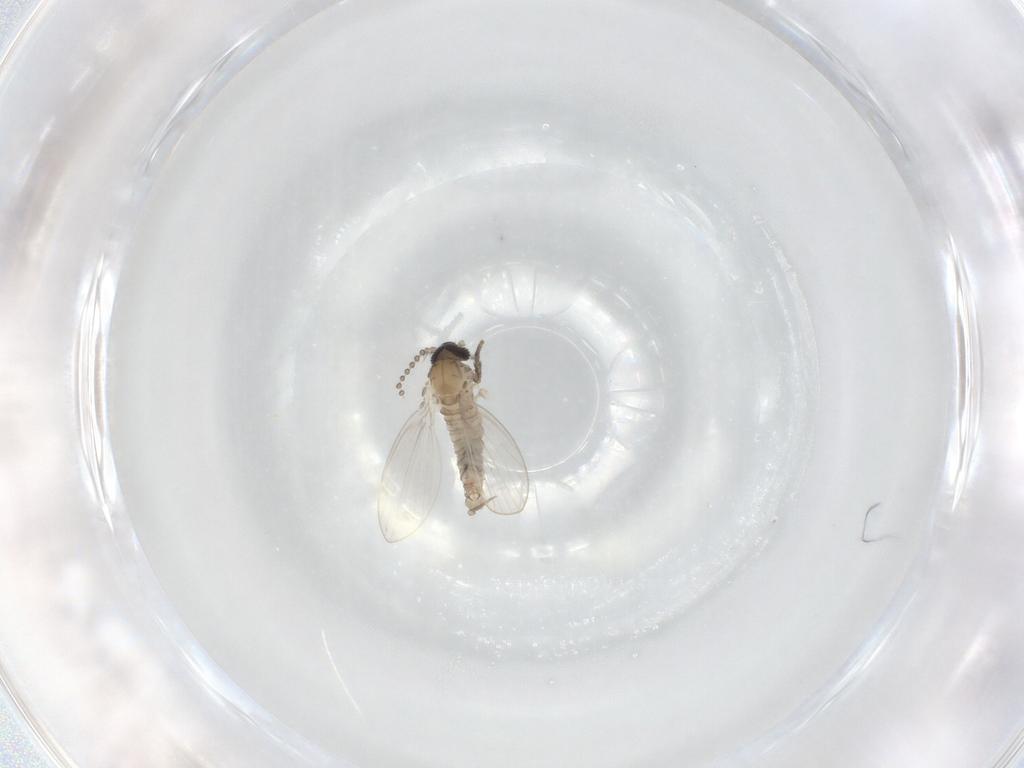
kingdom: Animalia
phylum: Arthropoda
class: Insecta
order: Diptera
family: Psychodidae
